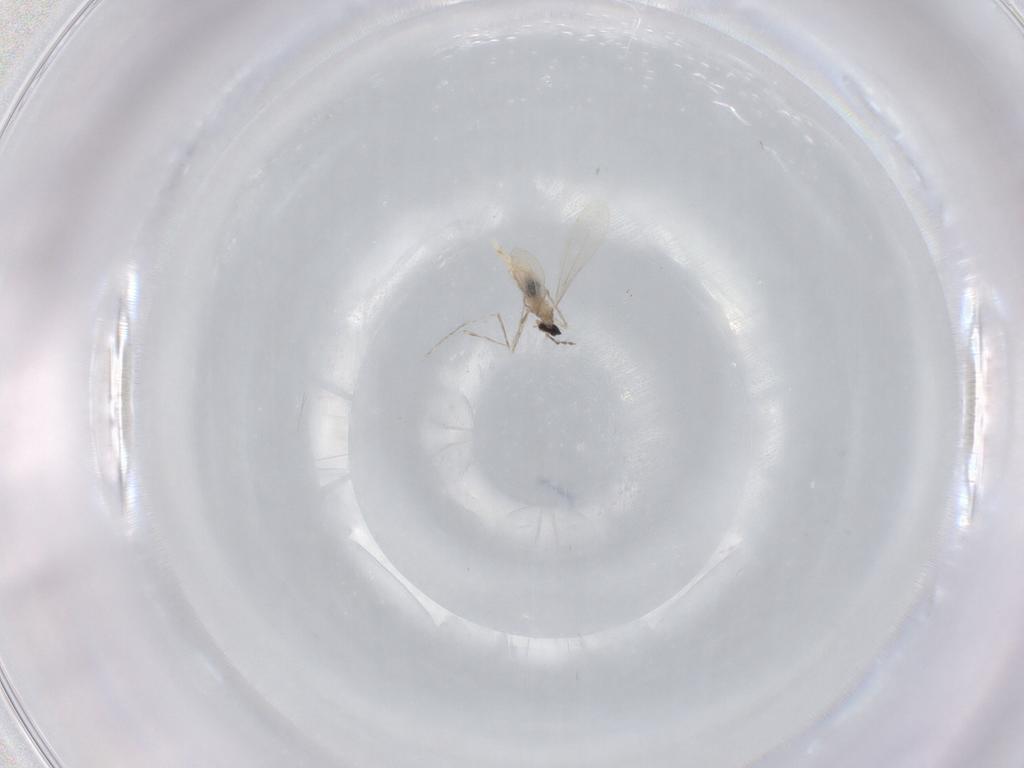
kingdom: Animalia
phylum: Arthropoda
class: Insecta
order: Diptera
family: Cecidomyiidae
